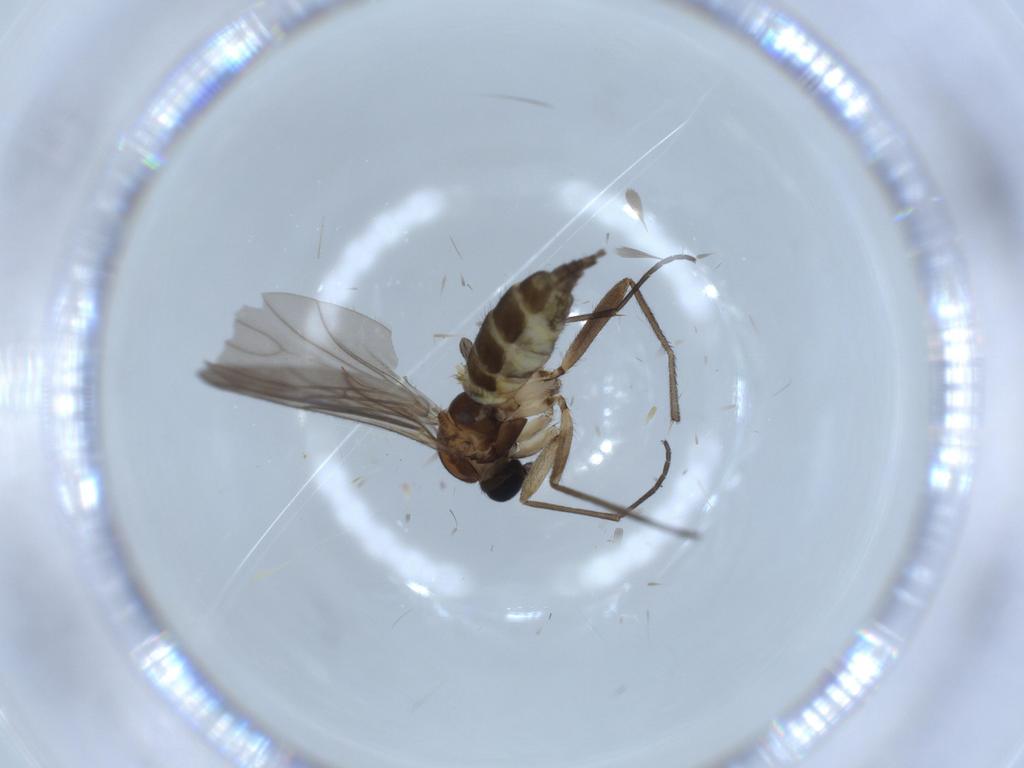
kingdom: Animalia
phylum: Arthropoda
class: Insecta
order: Diptera
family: Sciaridae
